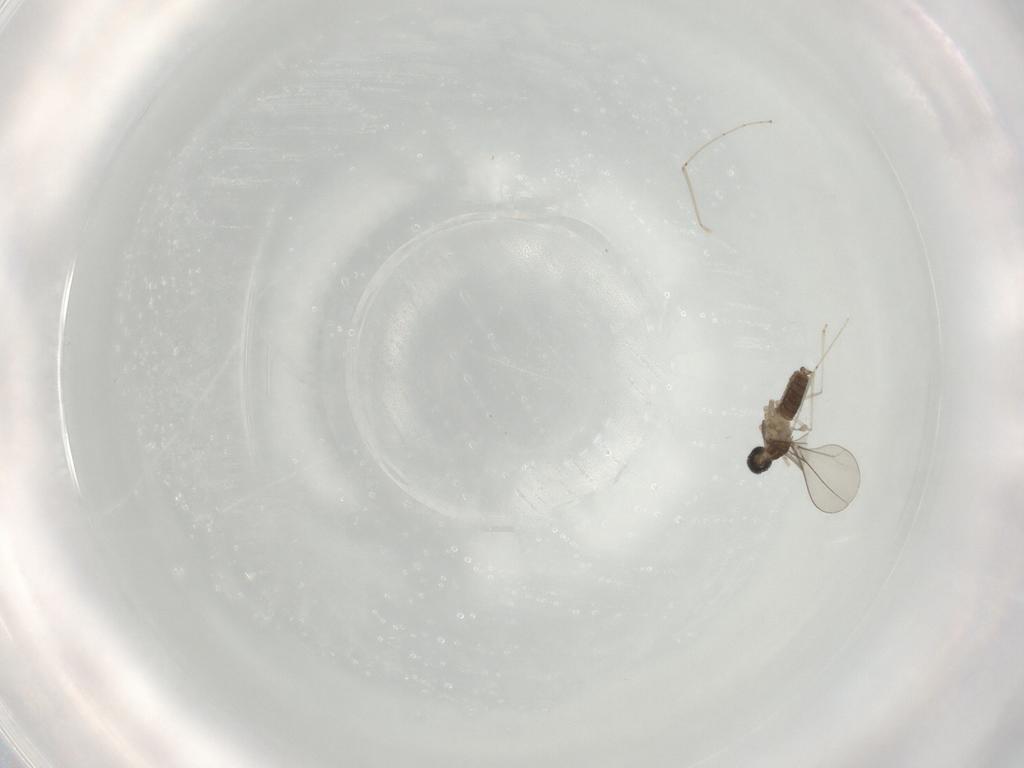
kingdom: Animalia
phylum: Arthropoda
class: Insecta
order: Diptera
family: Cecidomyiidae
